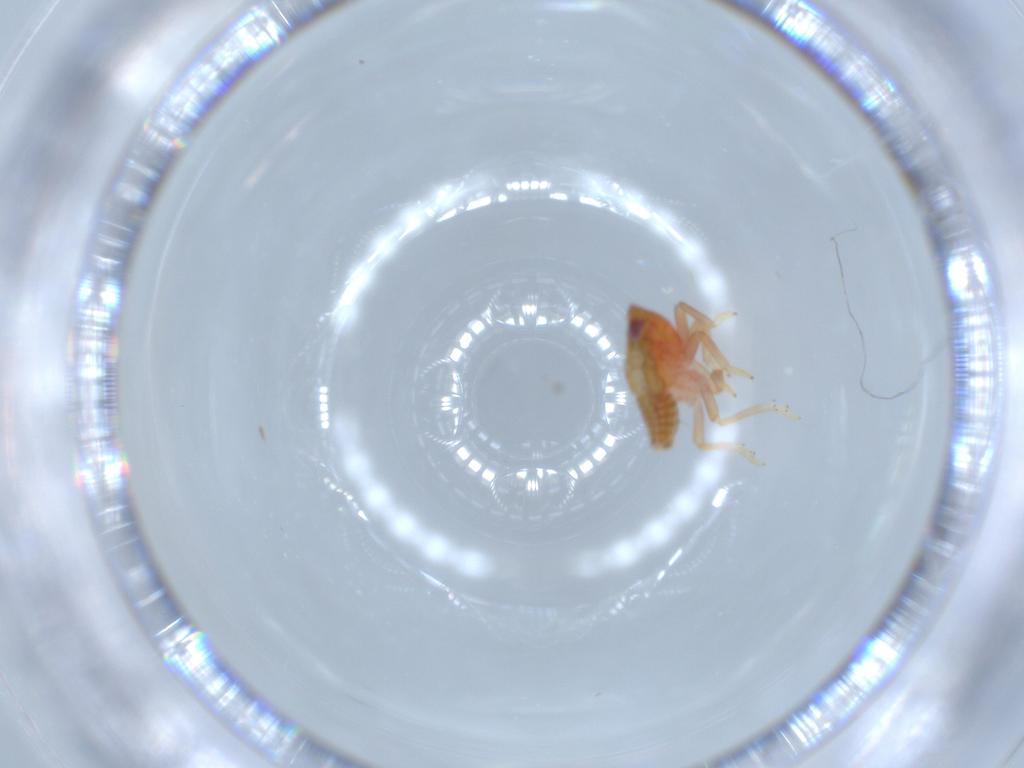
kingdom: Animalia
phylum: Arthropoda
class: Insecta
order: Hemiptera
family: Issidae
